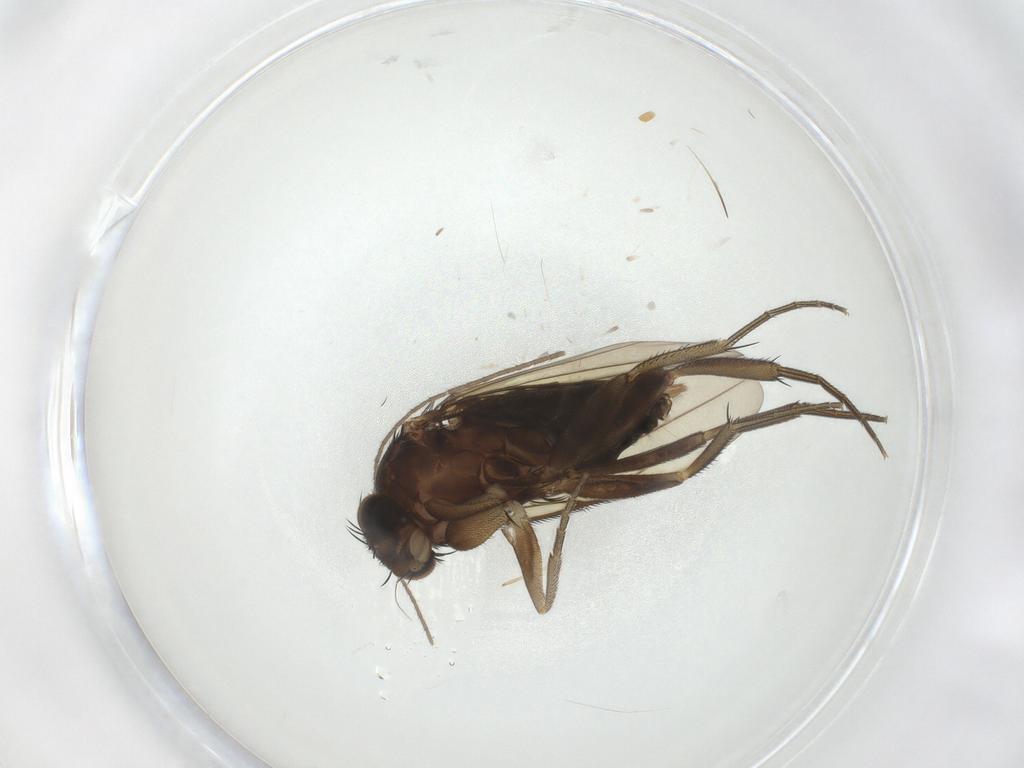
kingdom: Animalia
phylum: Arthropoda
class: Insecta
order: Diptera
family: Phoridae
